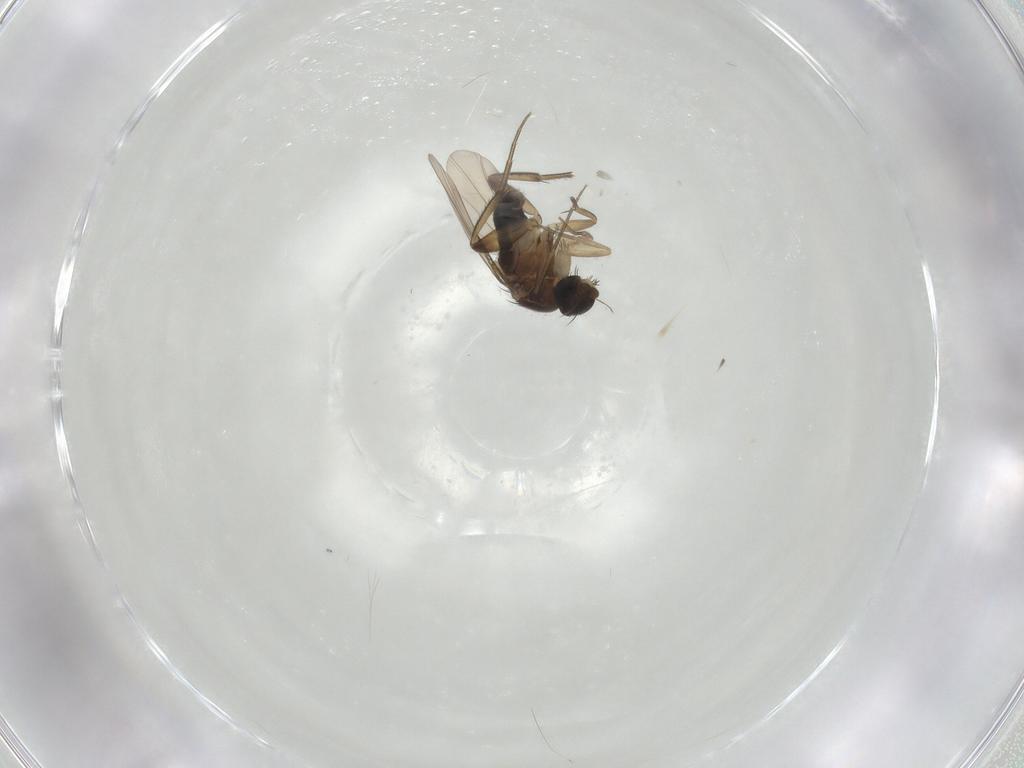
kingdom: Animalia
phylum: Arthropoda
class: Insecta
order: Diptera
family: Phoridae
